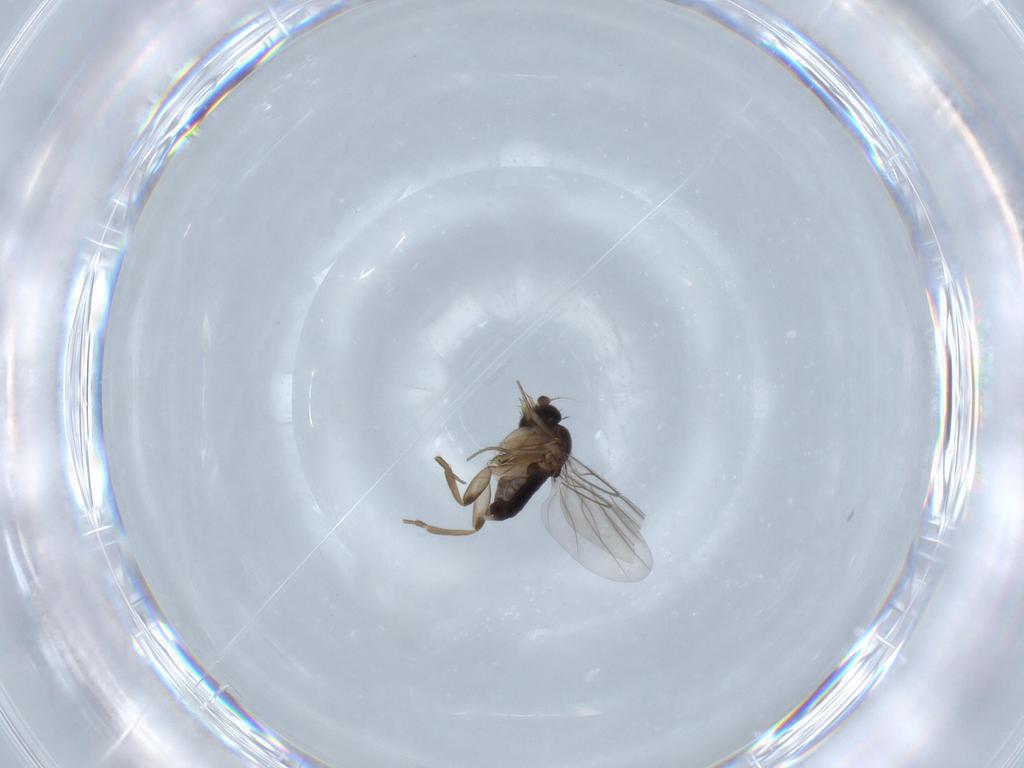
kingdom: Animalia
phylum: Arthropoda
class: Insecta
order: Diptera
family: Phoridae
